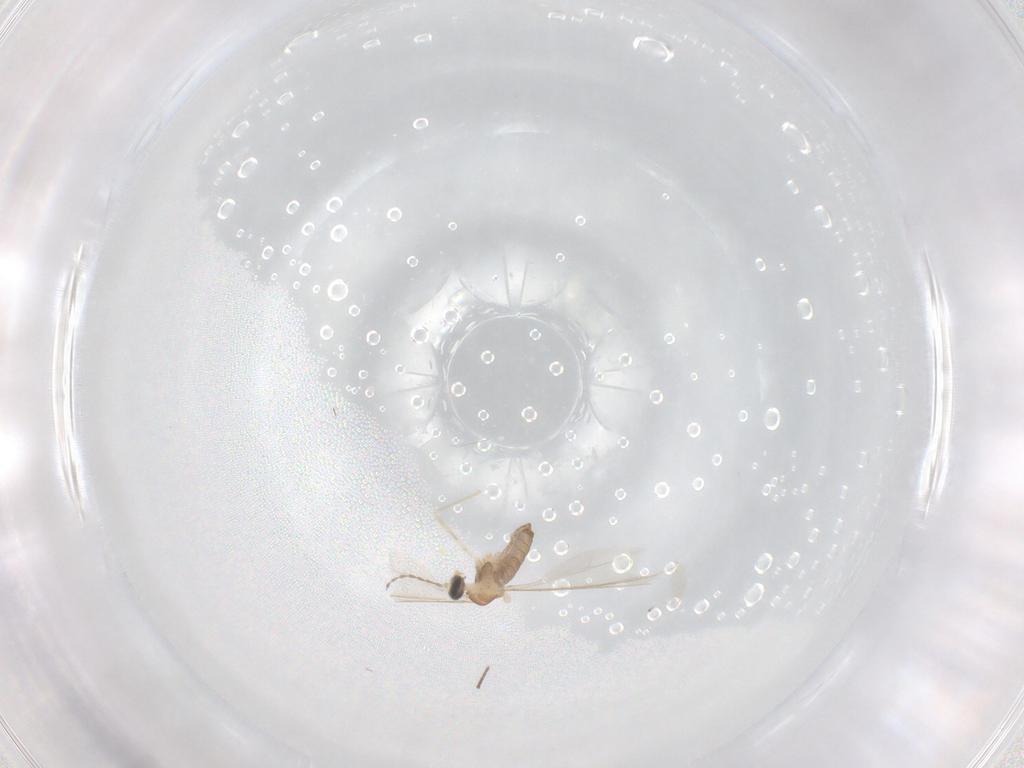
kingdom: Animalia
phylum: Arthropoda
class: Insecta
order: Diptera
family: Cecidomyiidae
